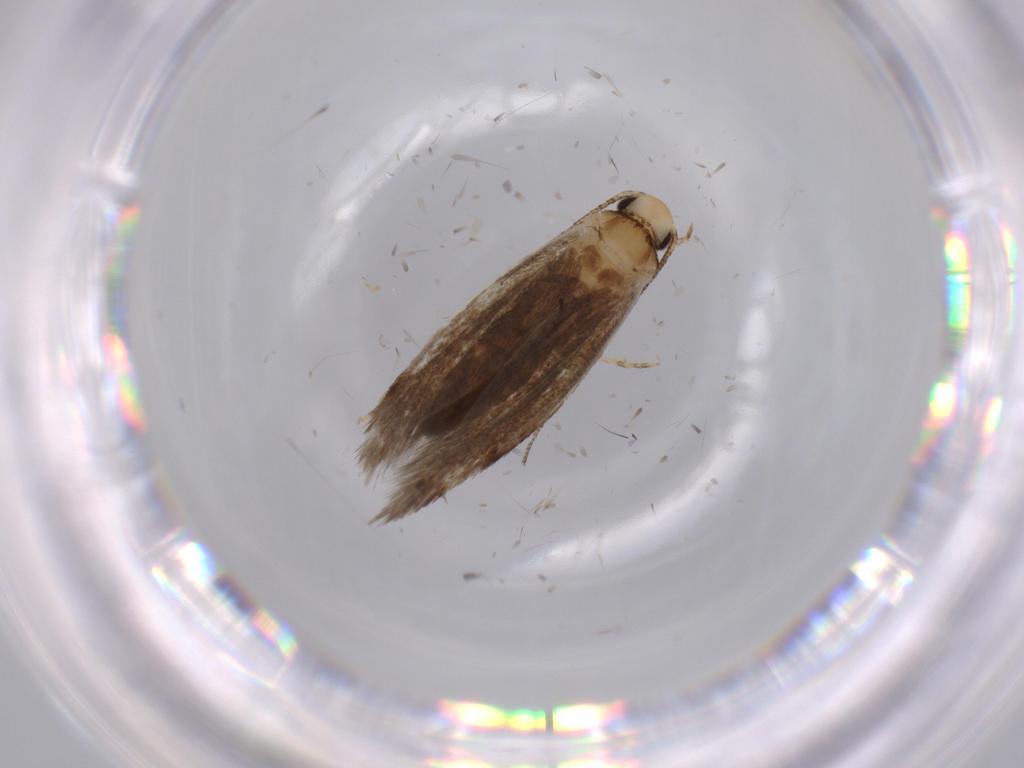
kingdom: Animalia
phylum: Arthropoda
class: Insecta
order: Lepidoptera
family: Tineidae
